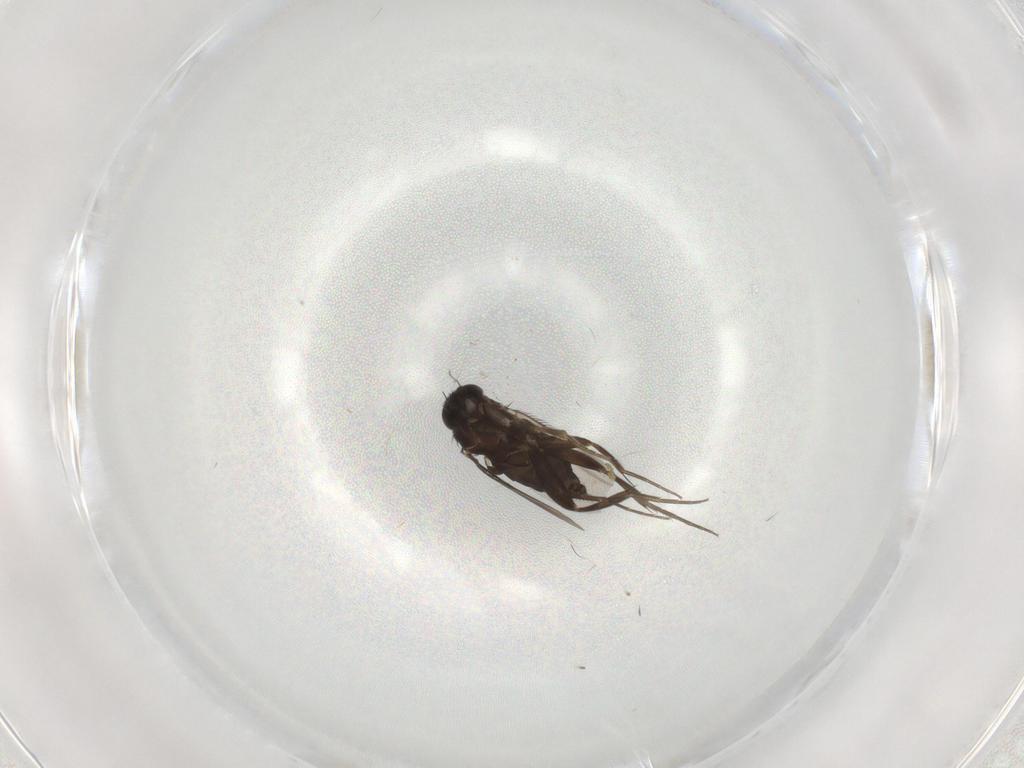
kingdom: Animalia
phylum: Arthropoda
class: Insecta
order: Diptera
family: Phoridae
